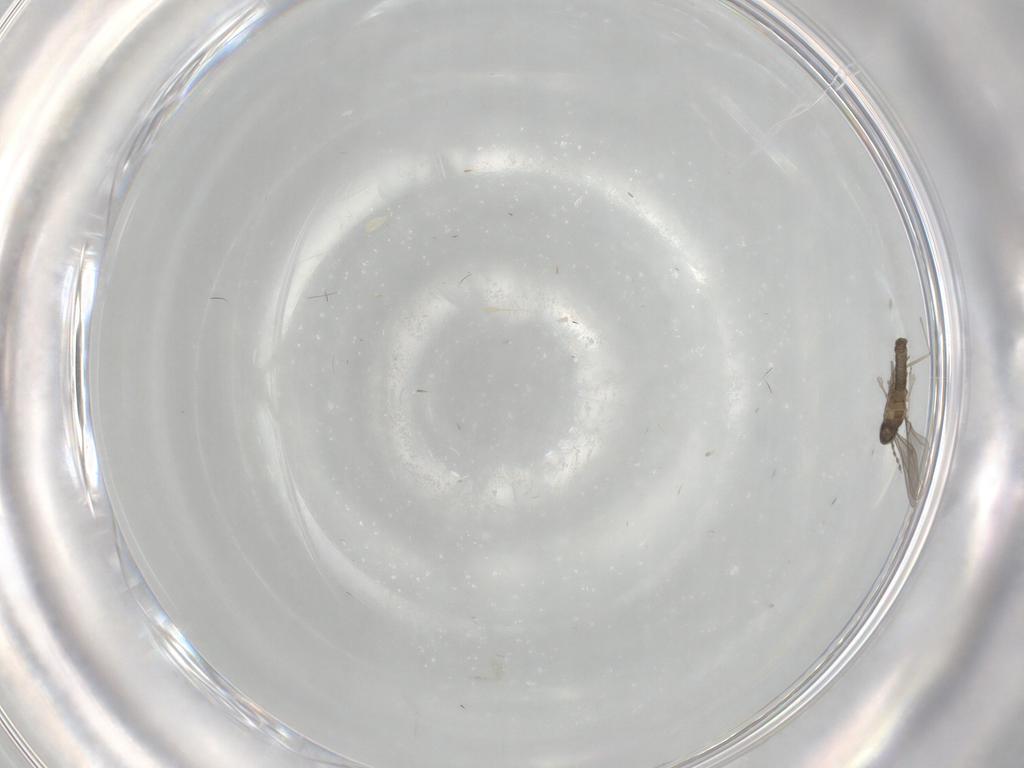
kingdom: Animalia
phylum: Arthropoda
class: Insecta
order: Diptera
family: Cecidomyiidae
